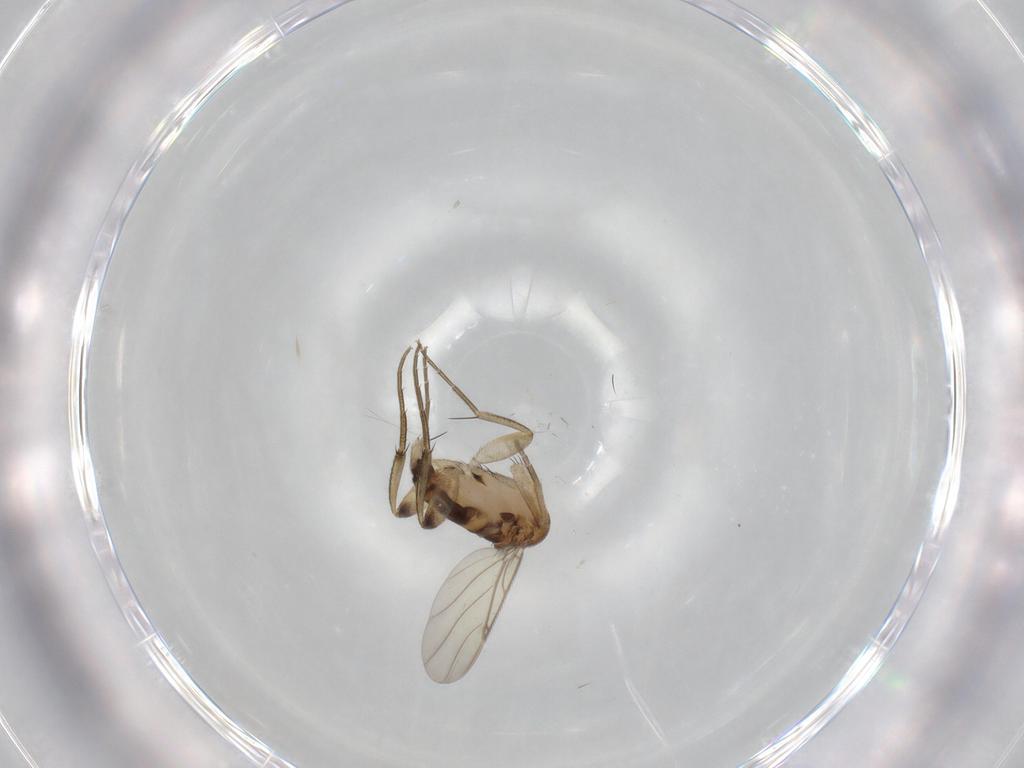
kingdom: Animalia
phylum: Arthropoda
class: Insecta
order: Diptera
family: Phoridae
